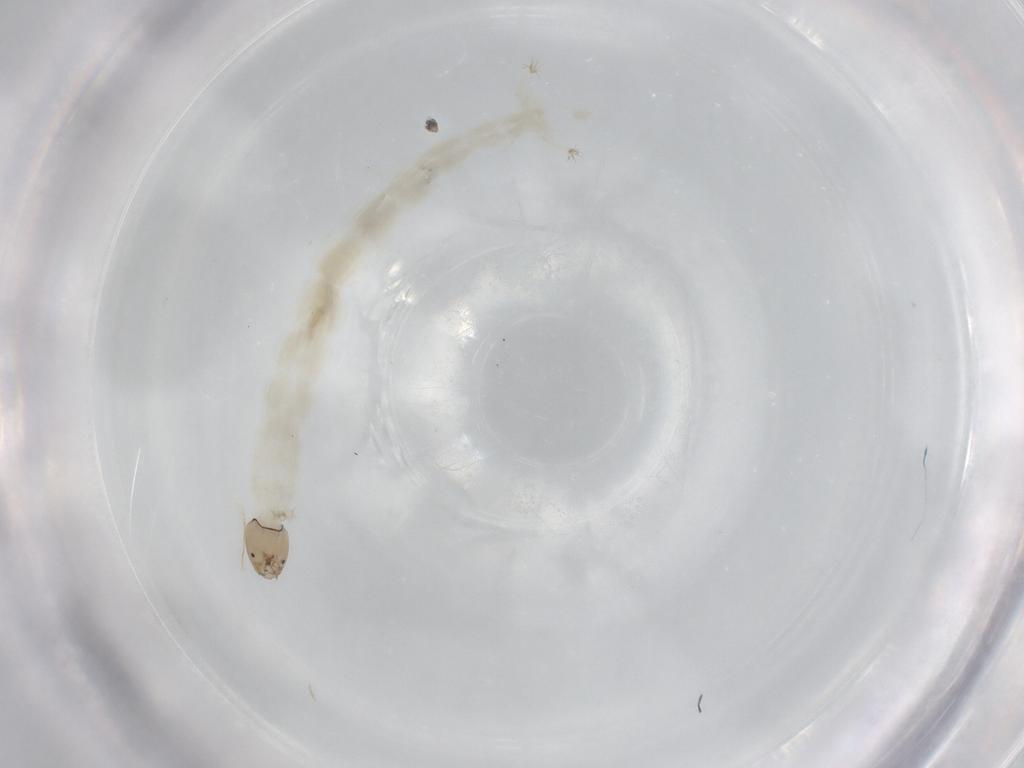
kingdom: Animalia
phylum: Arthropoda
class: Insecta
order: Diptera
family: Chironomidae
